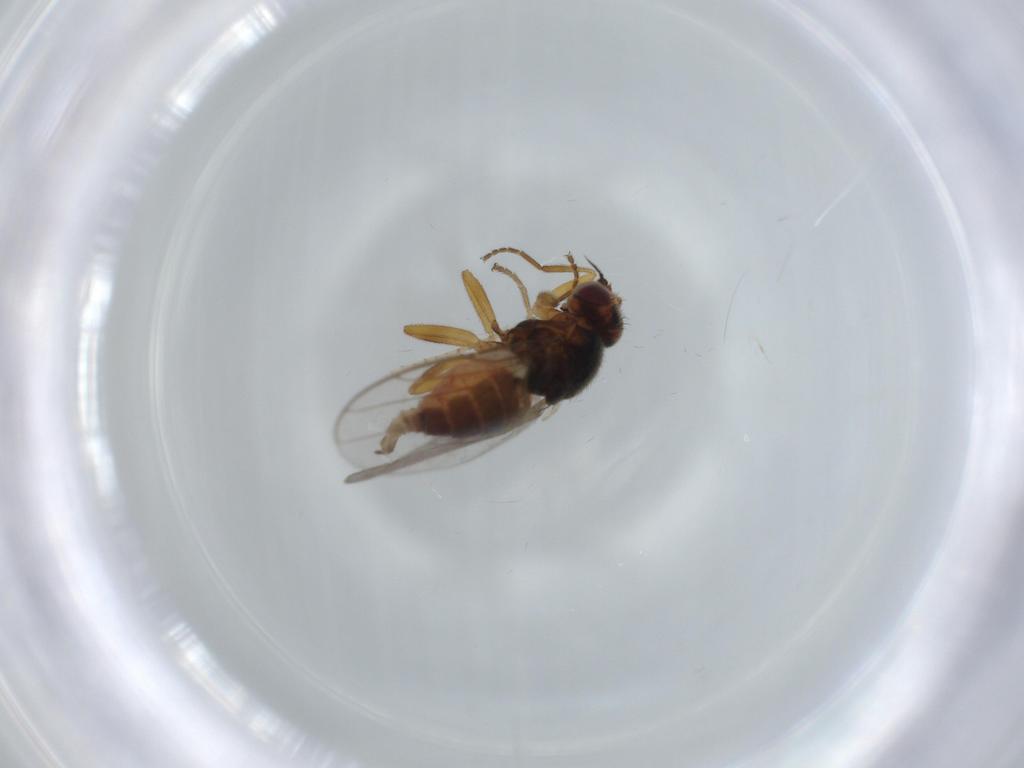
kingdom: Animalia
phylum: Arthropoda
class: Insecta
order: Diptera
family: Chloropidae
